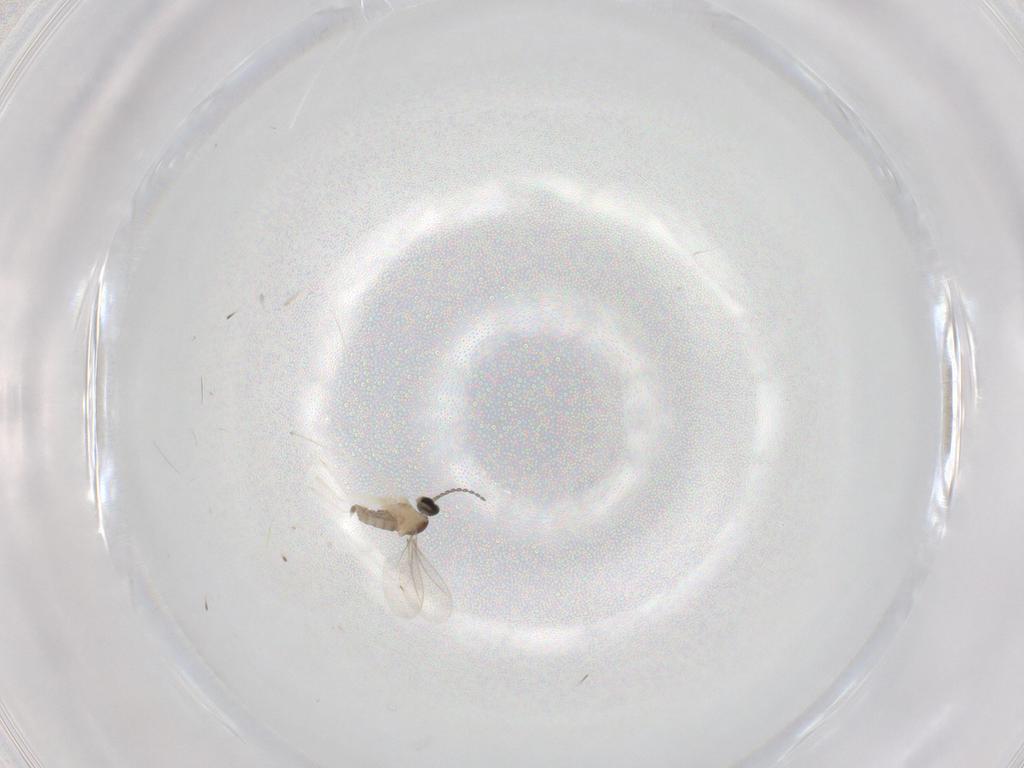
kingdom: Animalia
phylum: Arthropoda
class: Insecta
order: Diptera
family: Cecidomyiidae
